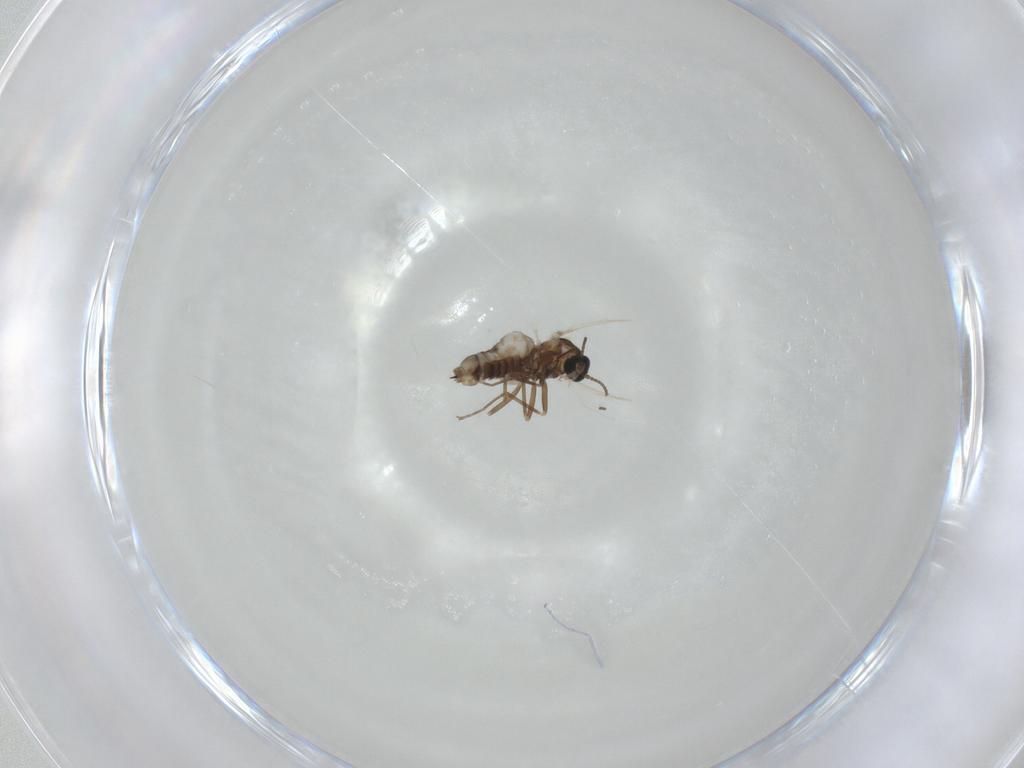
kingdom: Animalia
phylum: Arthropoda
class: Insecta
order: Diptera
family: Cecidomyiidae
